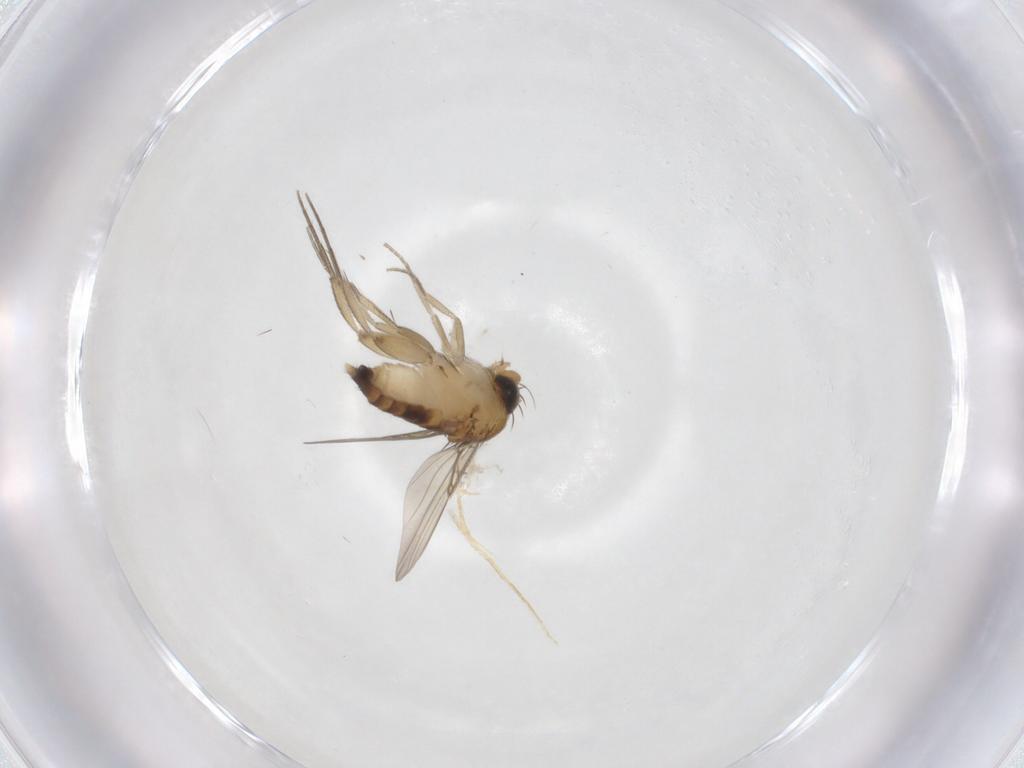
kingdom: Animalia
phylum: Arthropoda
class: Insecta
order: Diptera
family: Phoridae
